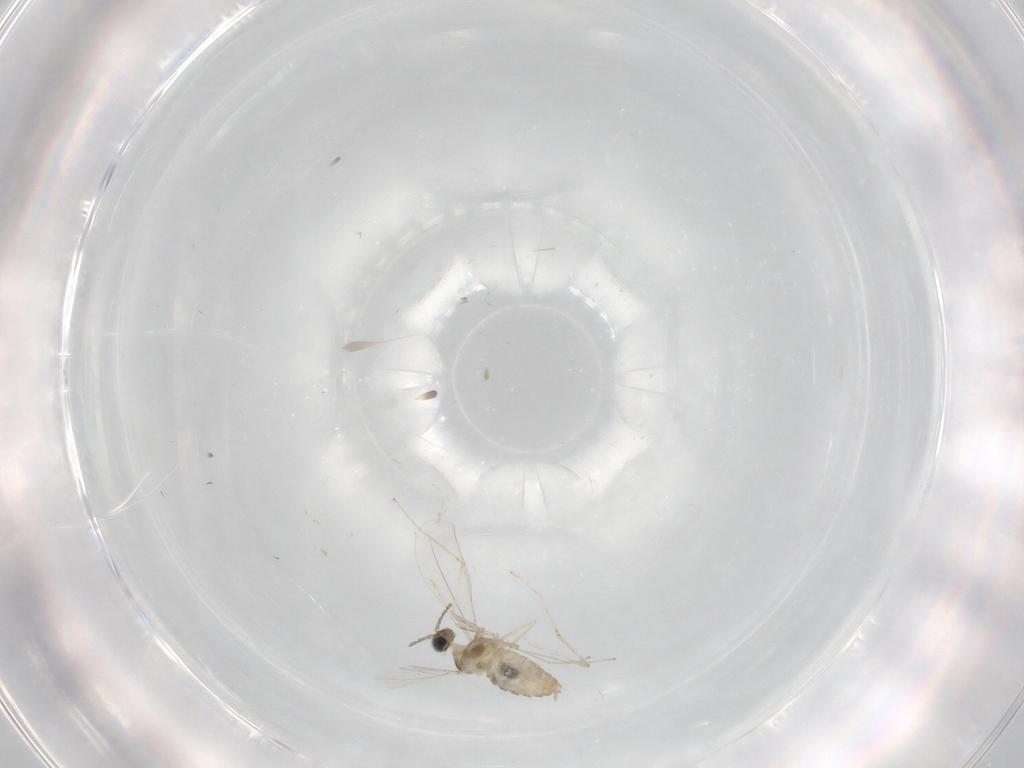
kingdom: Animalia
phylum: Arthropoda
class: Insecta
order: Diptera
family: Cecidomyiidae
